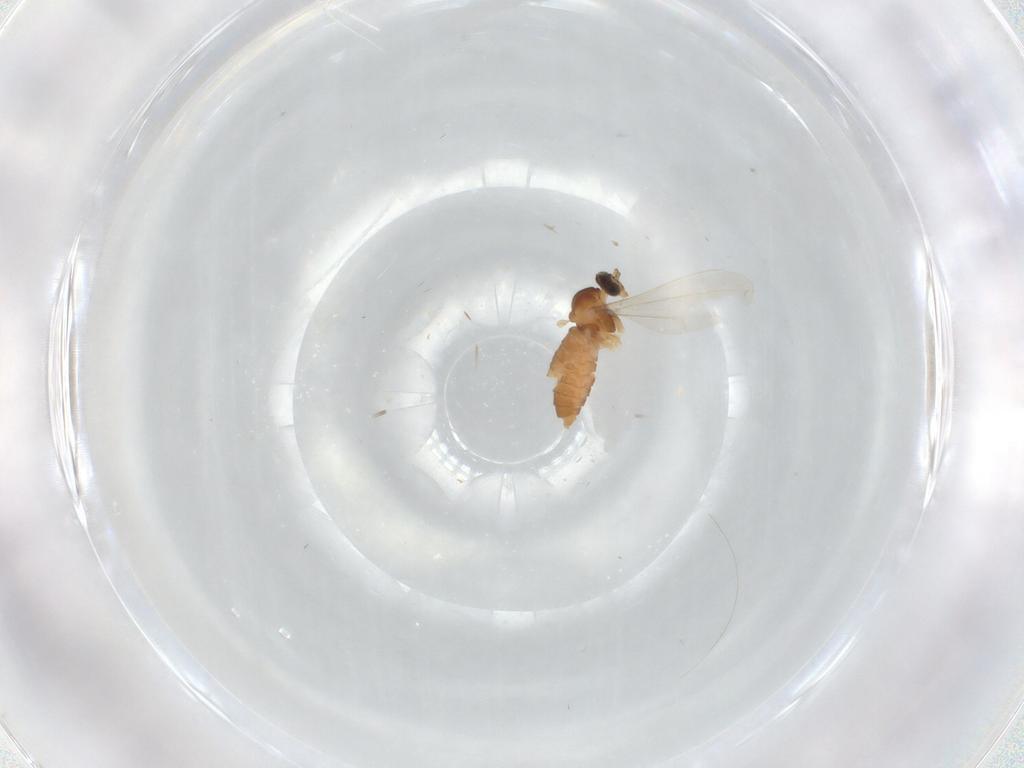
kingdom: Animalia
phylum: Arthropoda
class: Insecta
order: Diptera
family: Cecidomyiidae
